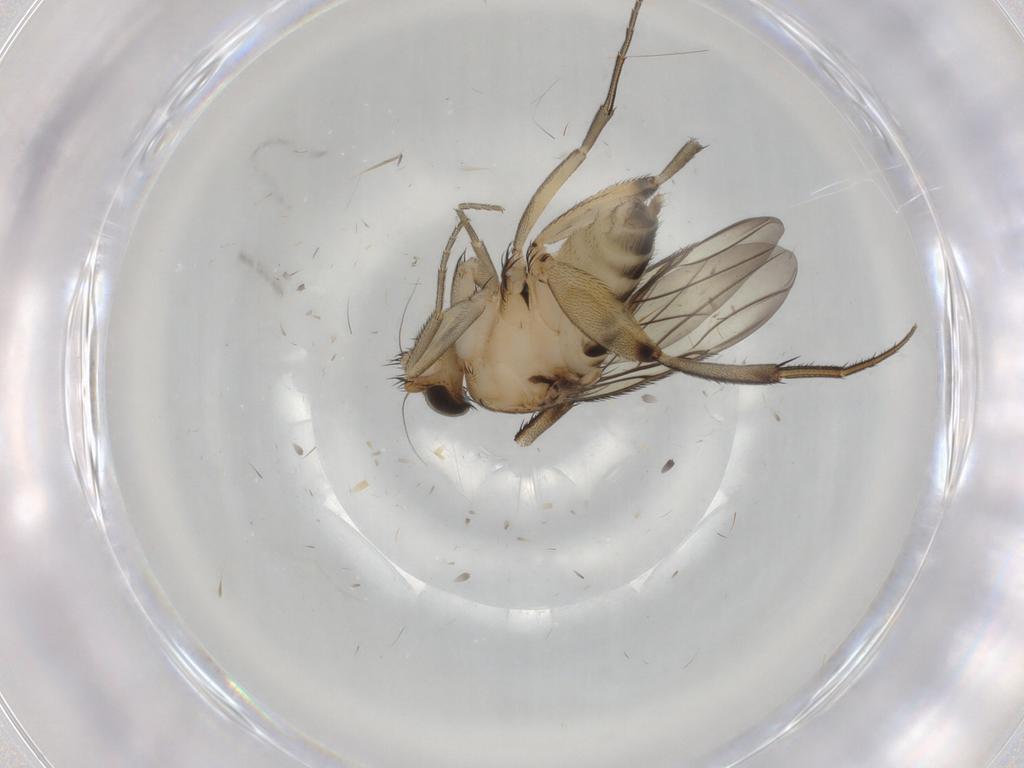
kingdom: Animalia
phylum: Arthropoda
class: Insecta
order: Diptera
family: Phoridae
